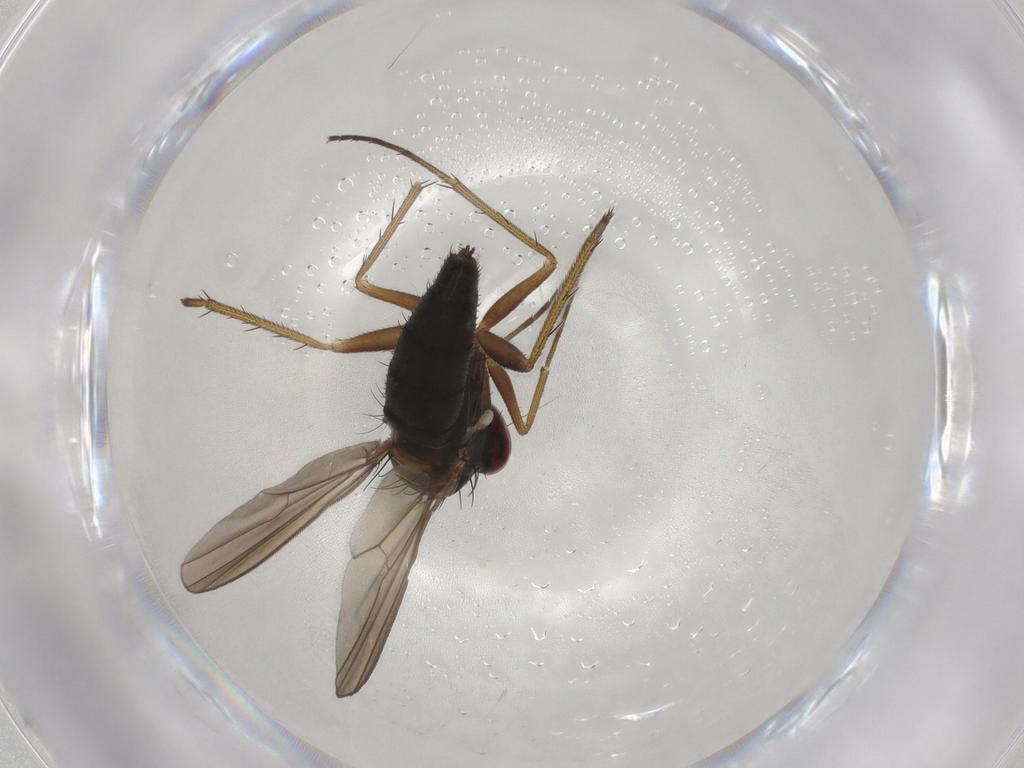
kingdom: Animalia
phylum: Arthropoda
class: Insecta
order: Diptera
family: Dolichopodidae
